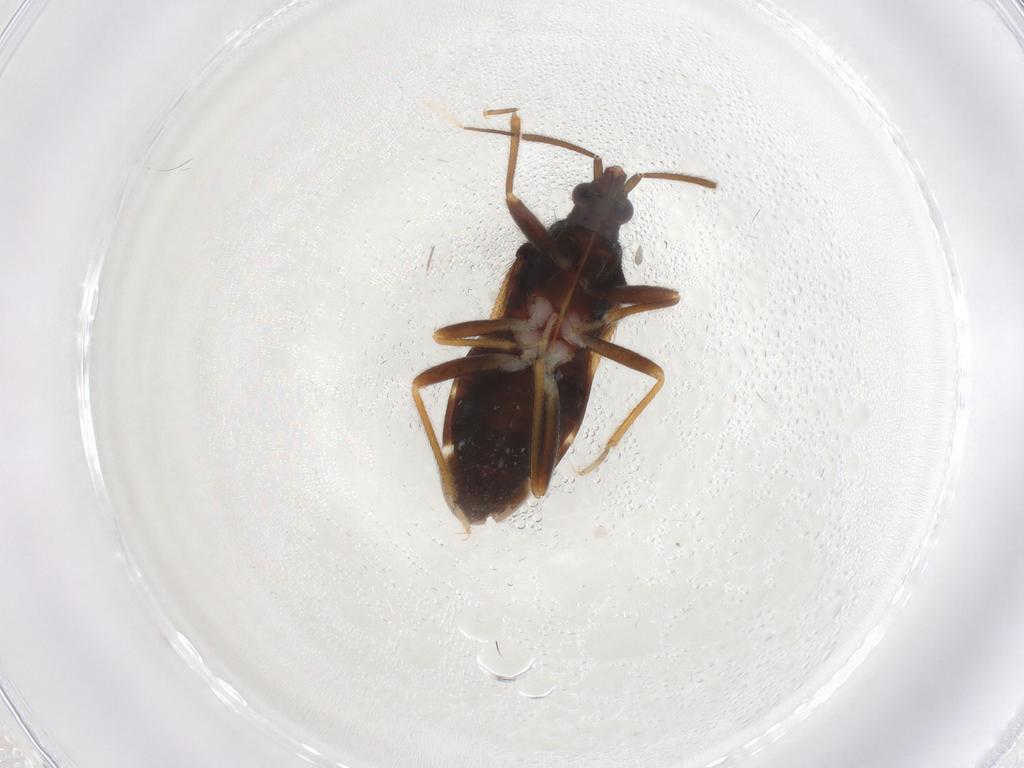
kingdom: Animalia
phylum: Arthropoda
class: Insecta
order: Hemiptera
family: Anthocoridae
